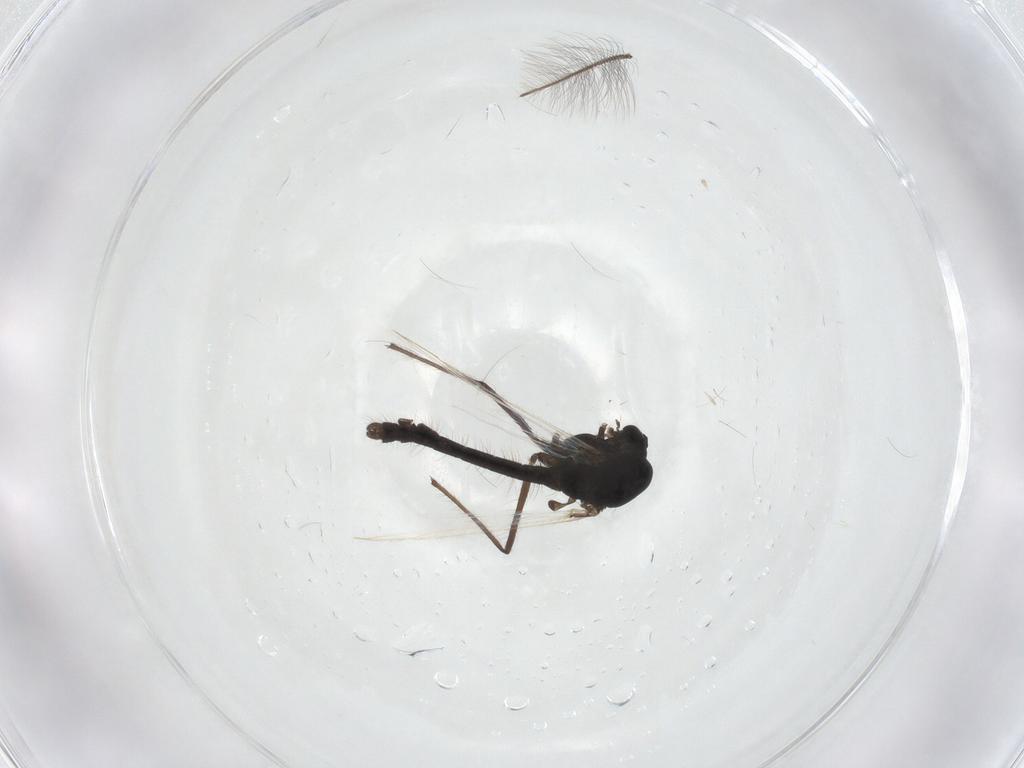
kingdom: Animalia
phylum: Arthropoda
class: Insecta
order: Diptera
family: Chironomidae
